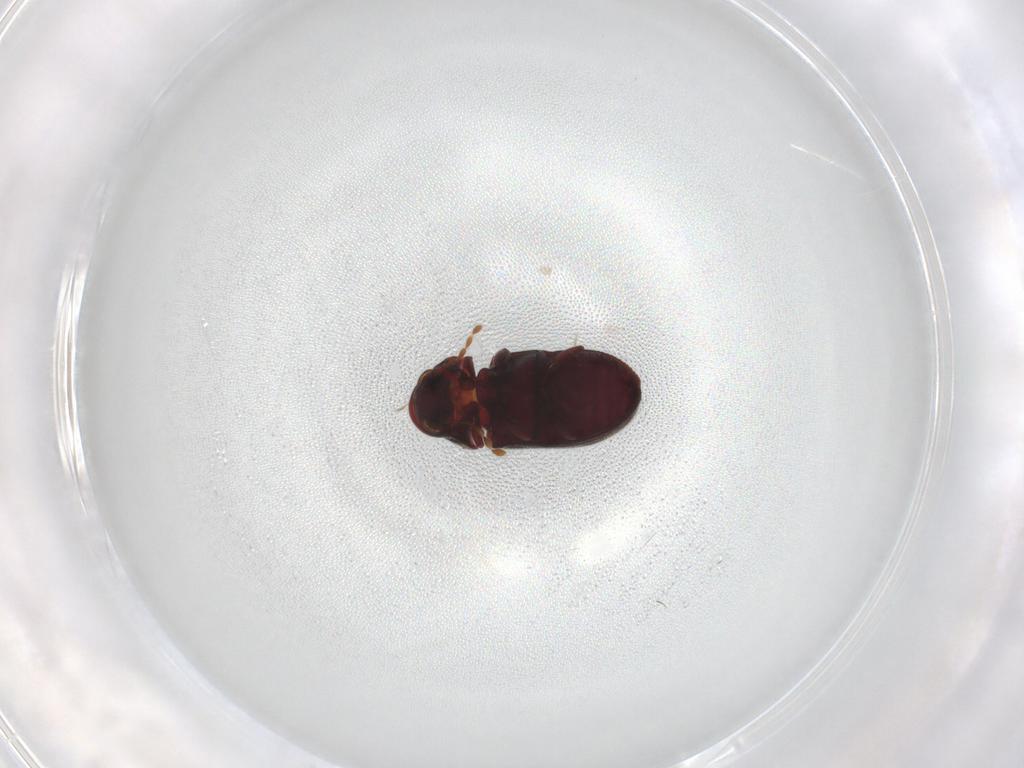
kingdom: Animalia
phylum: Arthropoda
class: Insecta
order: Coleoptera
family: Ptinidae
